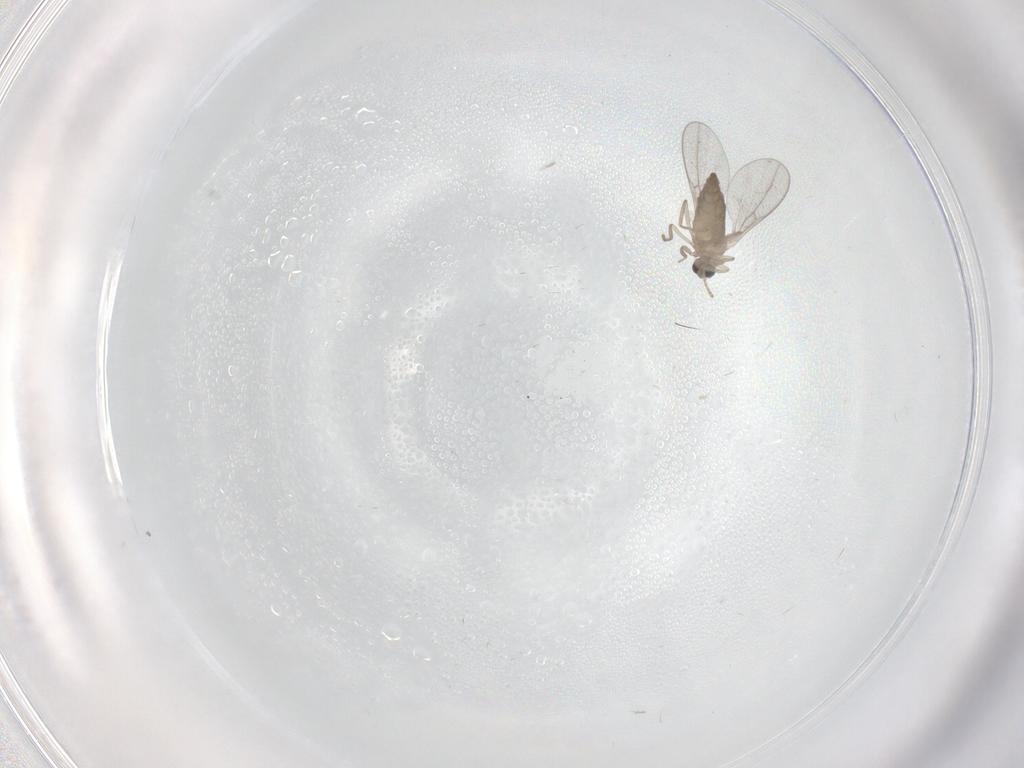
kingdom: Animalia
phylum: Arthropoda
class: Insecta
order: Diptera
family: Cecidomyiidae
